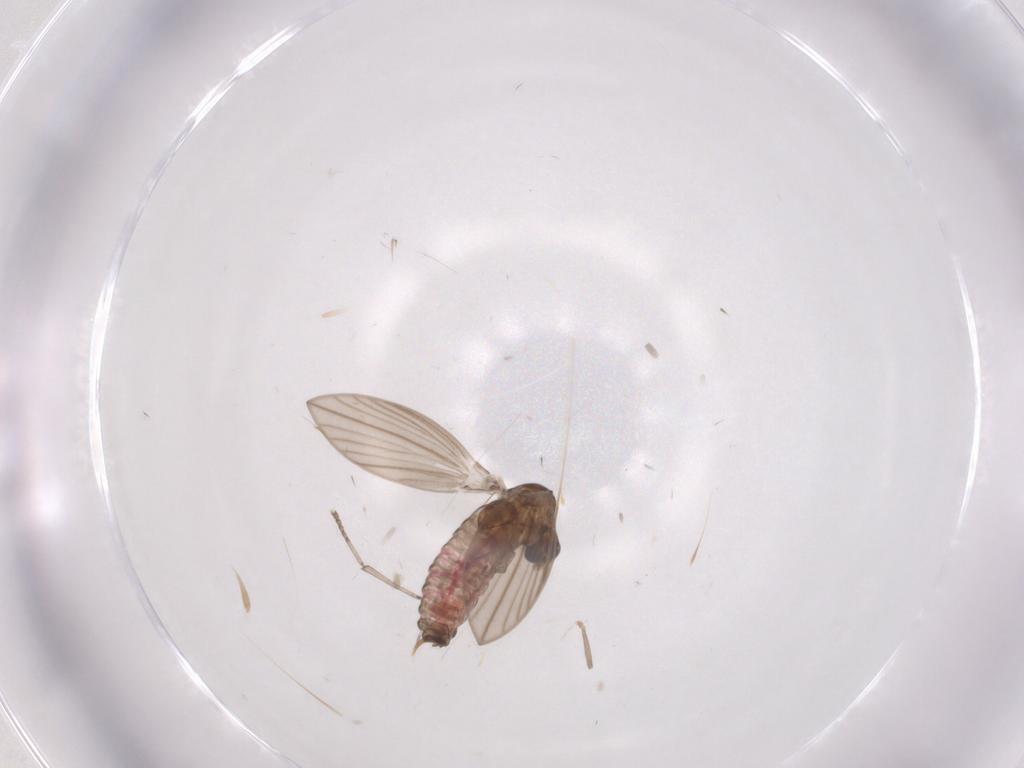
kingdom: Animalia
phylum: Arthropoda
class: Insecta
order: Diptera
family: Psychodidae
